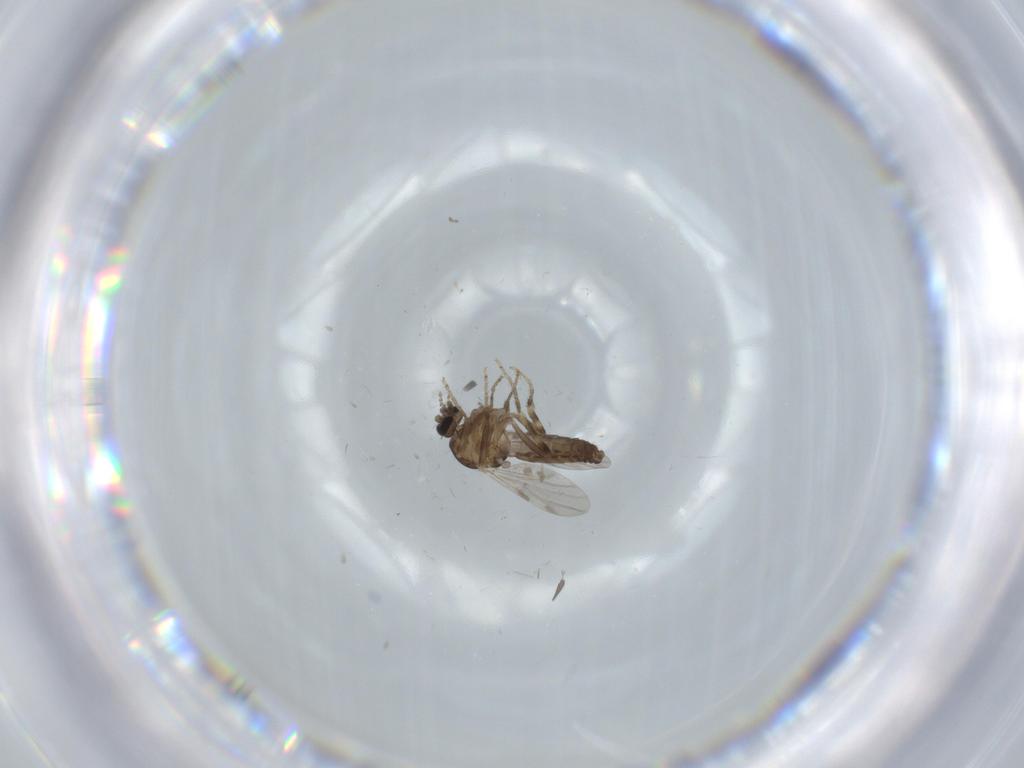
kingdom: Animalia
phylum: Arthropoda
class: Insecta
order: Diptera
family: Ceratopogonidae
